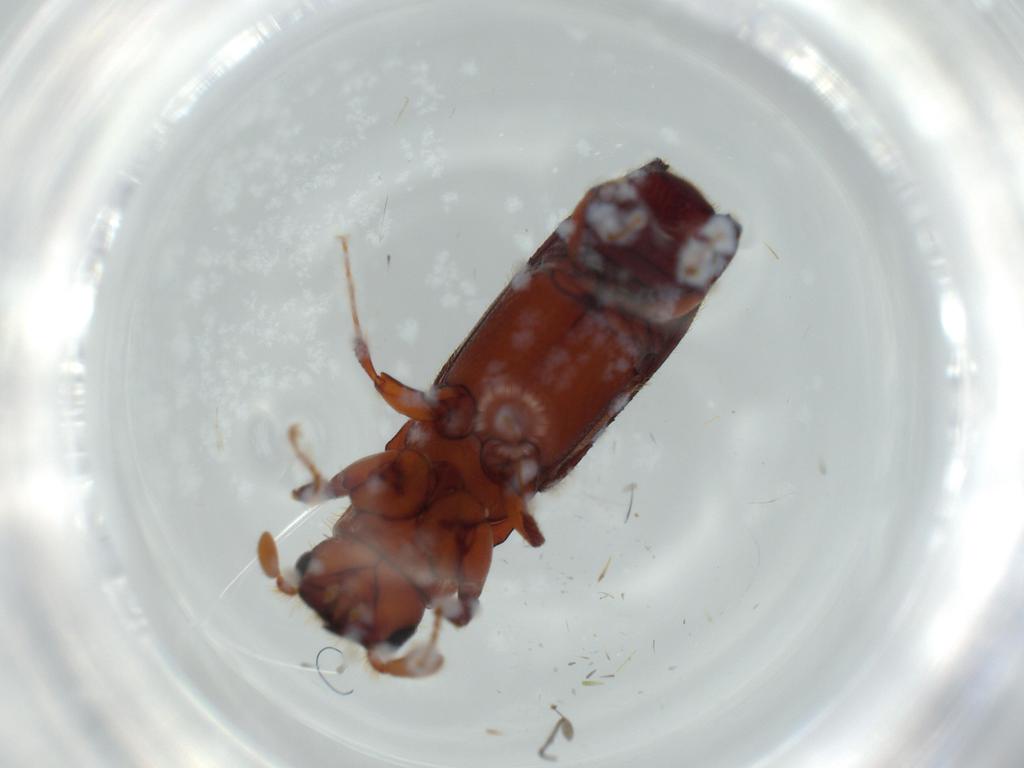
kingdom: Animalia
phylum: Arthropoda
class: Insecta
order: Coleoptera
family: Curculionidae
